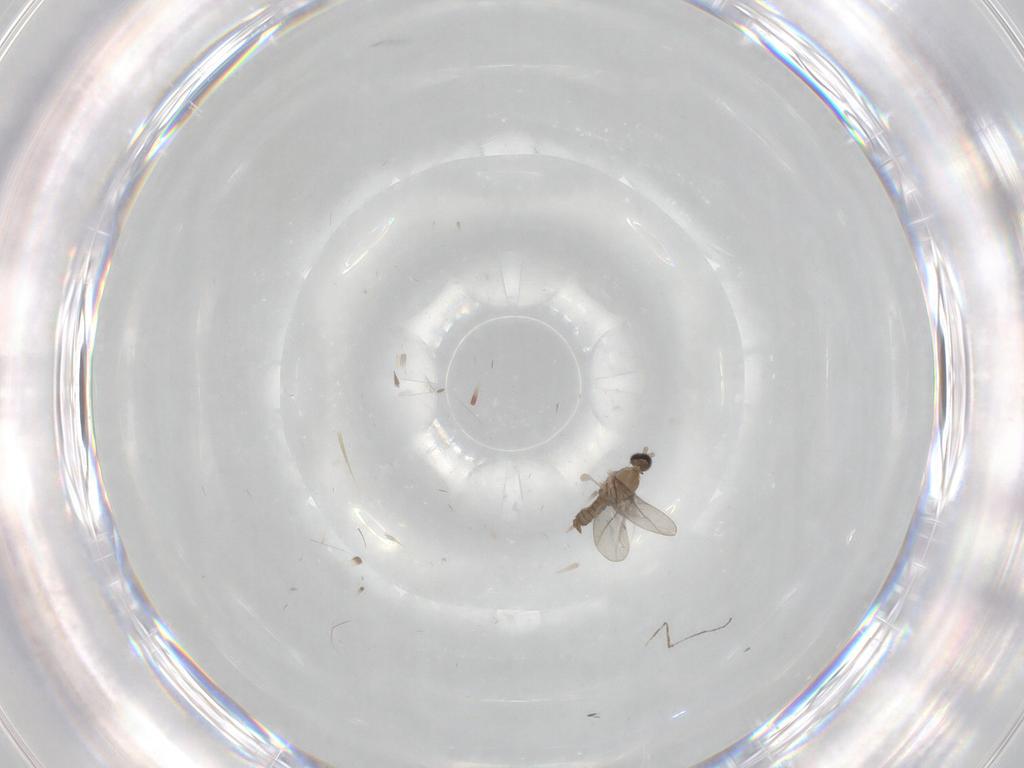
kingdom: Animalia
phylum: Arthropoda
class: Insecta
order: Diptera
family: Cecidomyiidae
